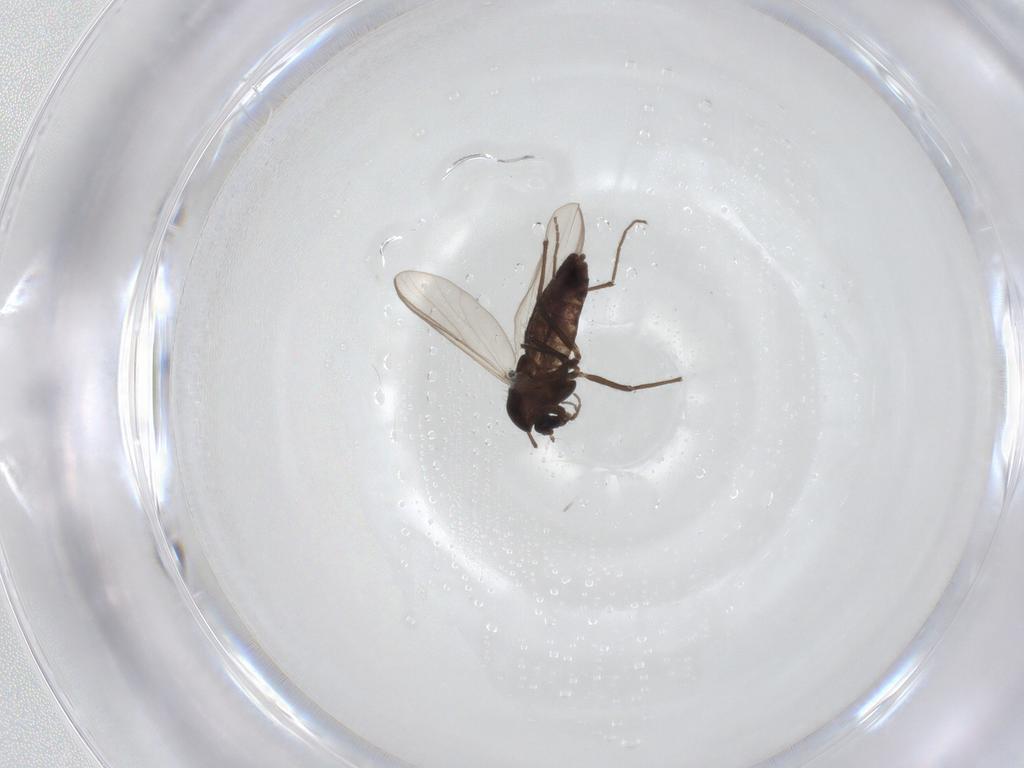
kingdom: Animalia
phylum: Arthropoda
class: Insecta
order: Diptera
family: Chironomidae
